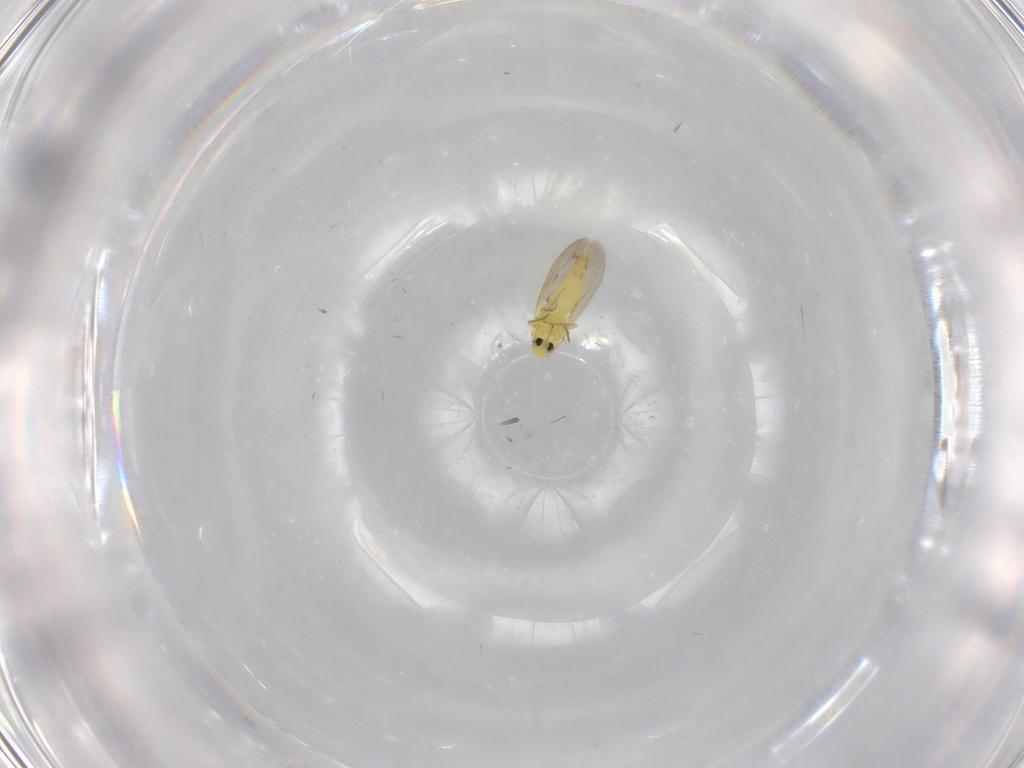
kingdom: Animalia
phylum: Arthropoda
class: Insecta
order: Hemiptera
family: Aleyrodidae
